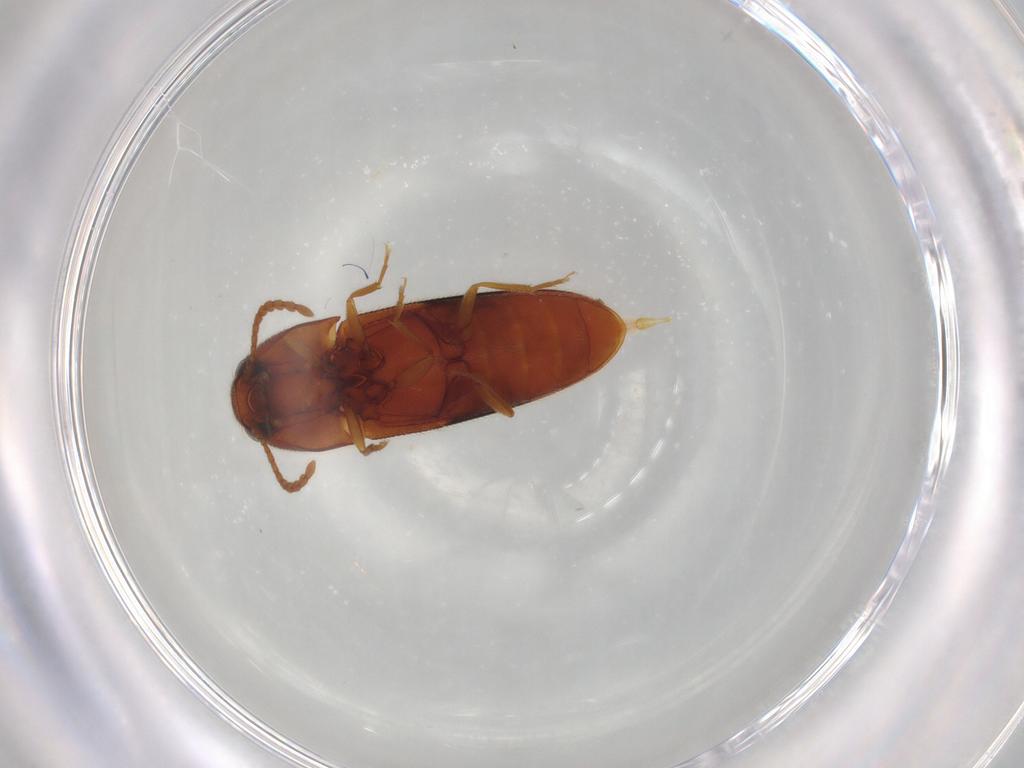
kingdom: Animalia
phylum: Arthropoda
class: Insecta
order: Coleoptera
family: Elateridae
